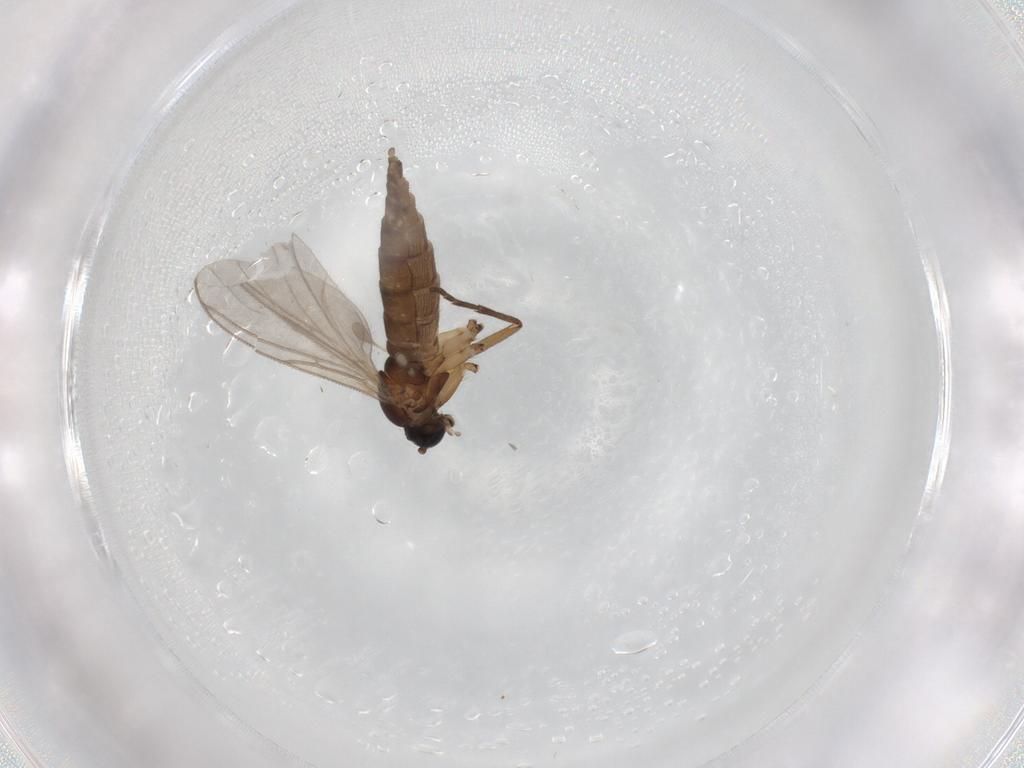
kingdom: Animalia
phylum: Arthropoda
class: Insecta
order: Diptera
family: Sciaridae
